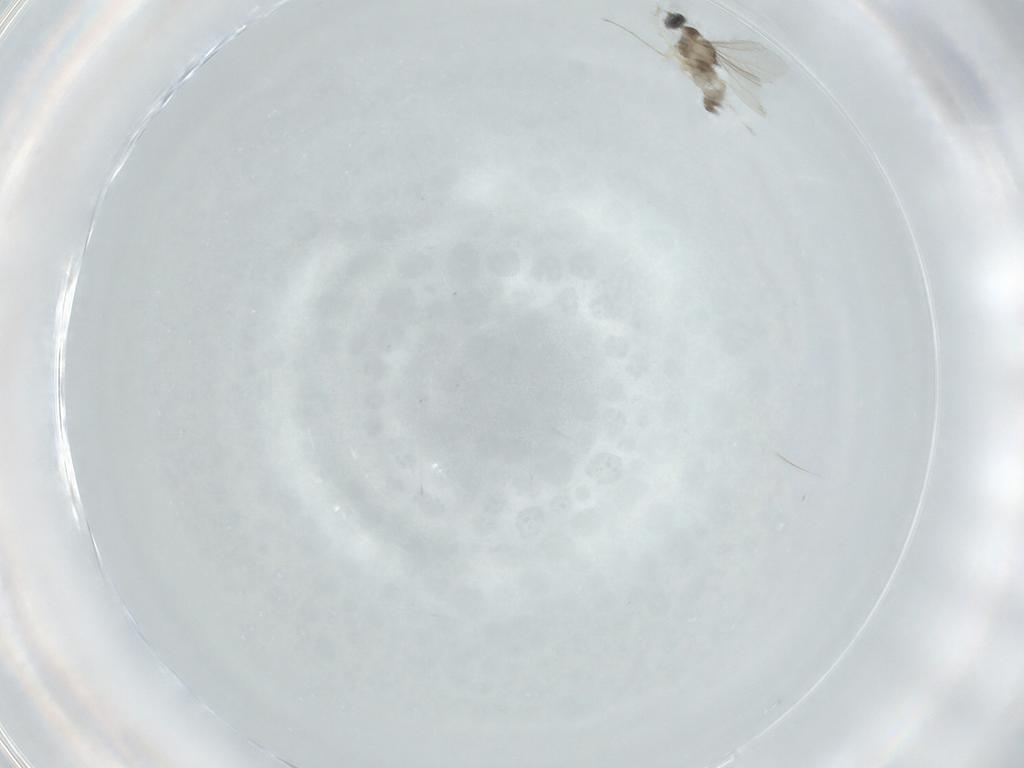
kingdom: Animalia
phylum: Arthropoda
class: Insecta
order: Diptera
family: Cecidomyiidae
